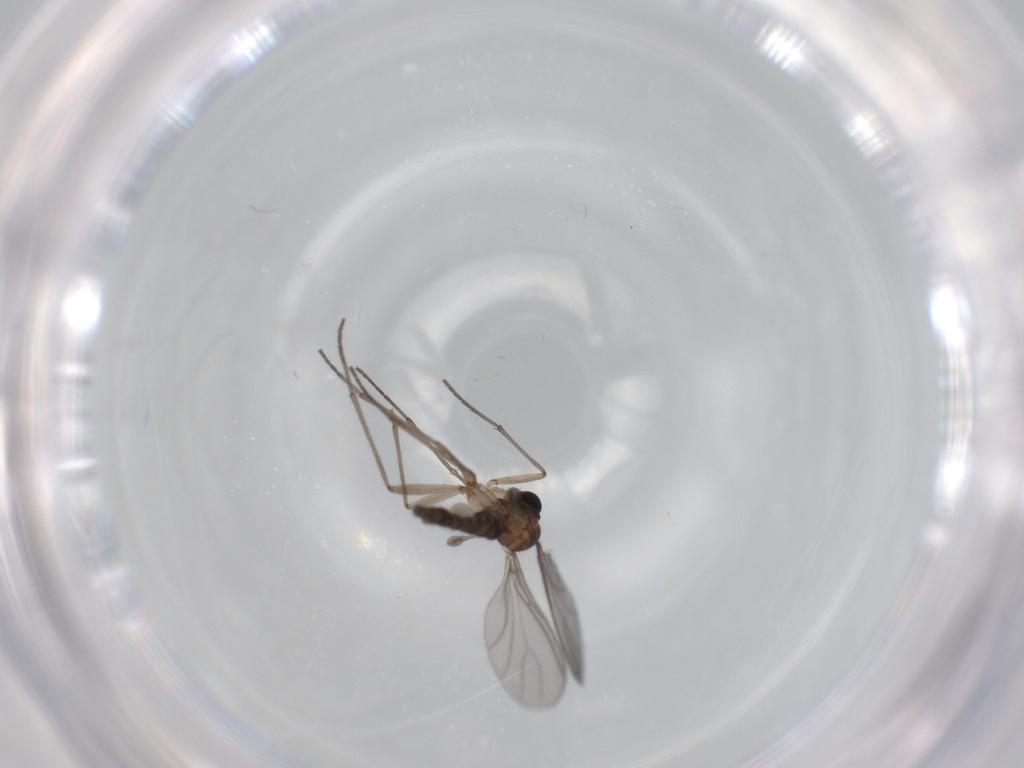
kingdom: Animalia
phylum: Arthropoda
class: Insecta
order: Diptera
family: Sciaridae
